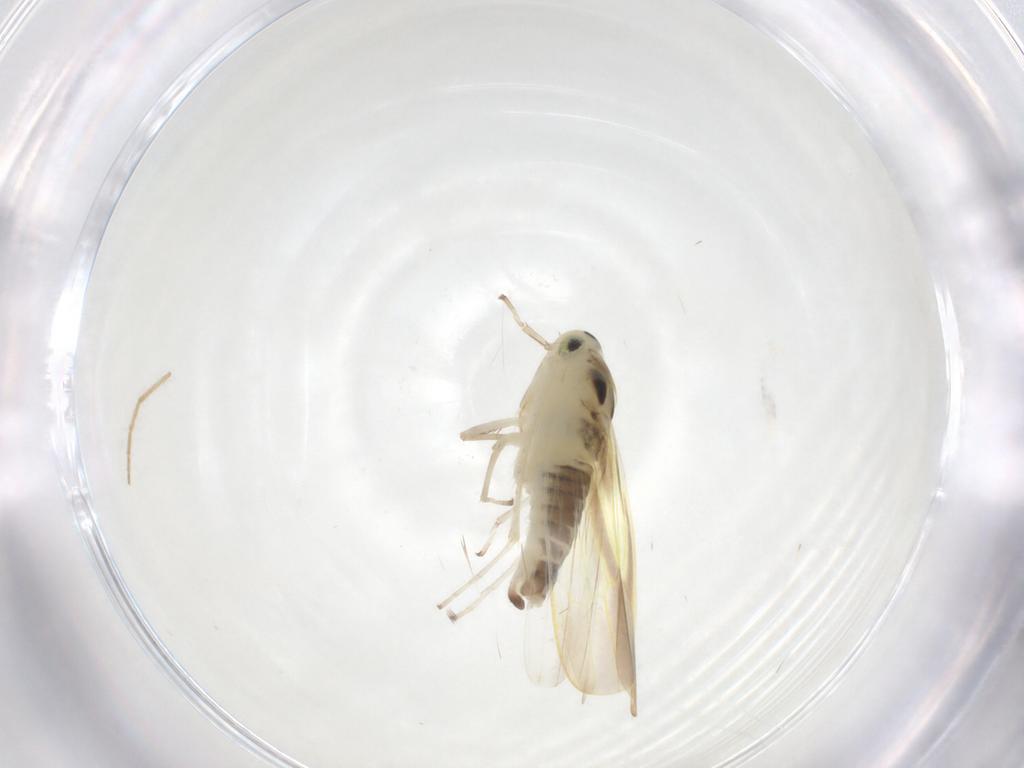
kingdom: Animalia
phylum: Arthropoda
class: Insecta
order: Hemiptera
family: Cicadellidae
